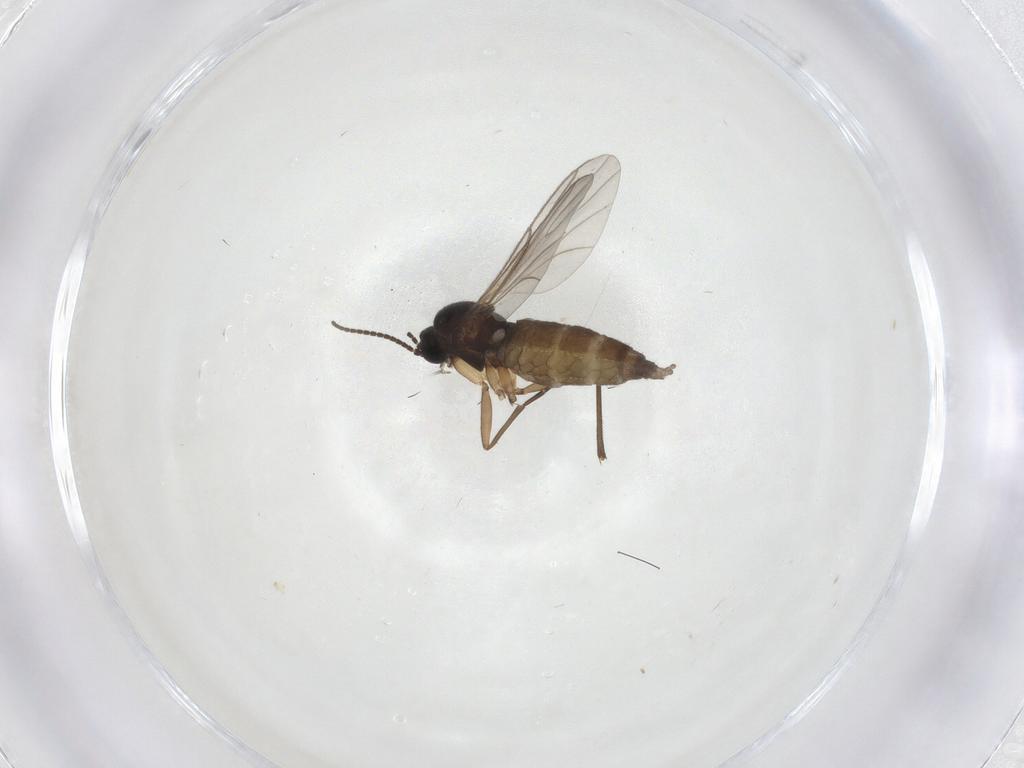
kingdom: Animalia
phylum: Arthropoda
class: Insecta
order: Diptera
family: Sciaridae
